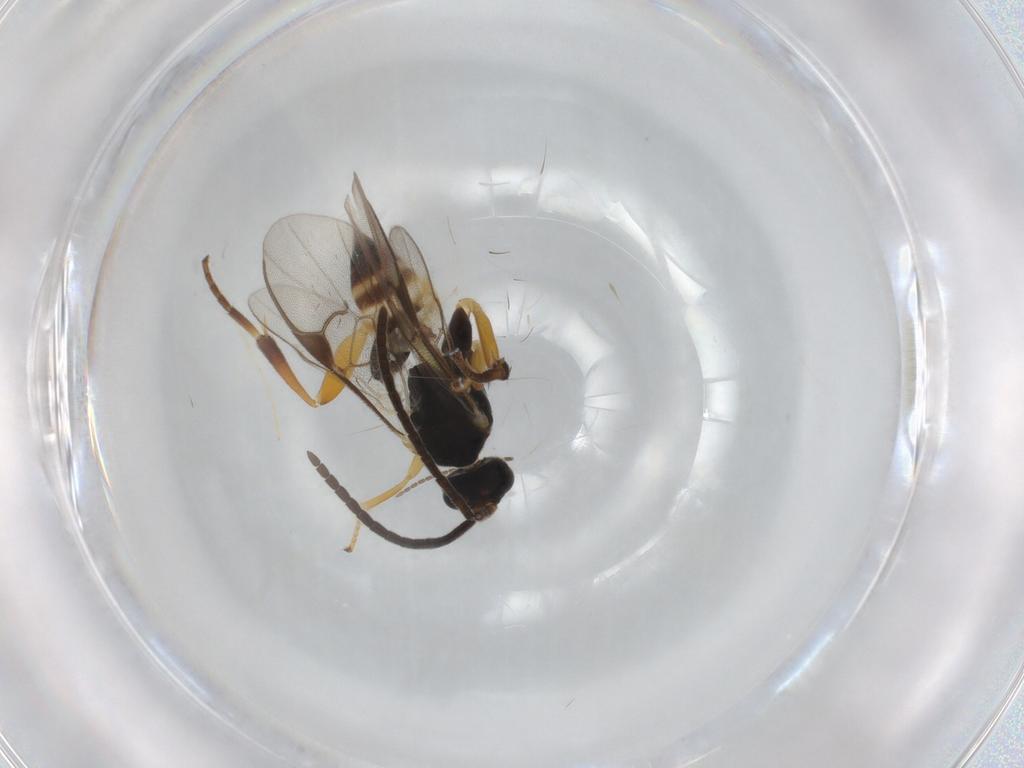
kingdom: Animalia
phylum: Arthropoda
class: Insecta
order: Hymenoptera
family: Braconidae
